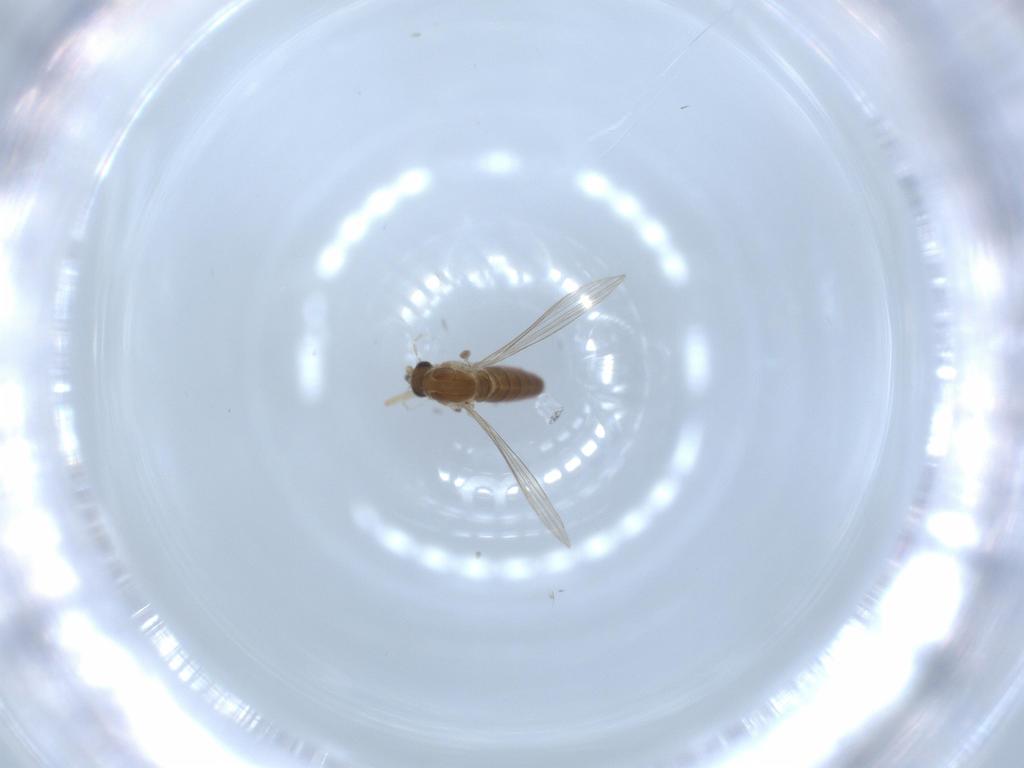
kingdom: Animalia
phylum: Arthropoda
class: Insecta
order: Diptera
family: Psychodidae
